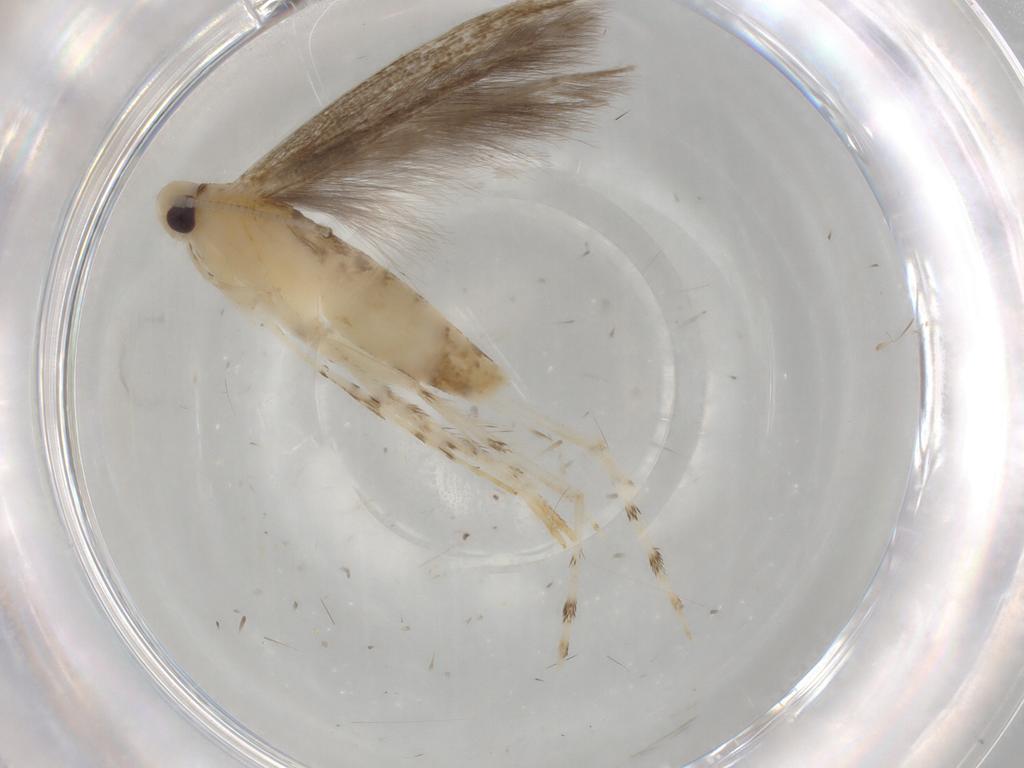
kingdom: Animalia
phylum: Arthropoda
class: Insecta
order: Lepidoptera
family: Gracillariidae
